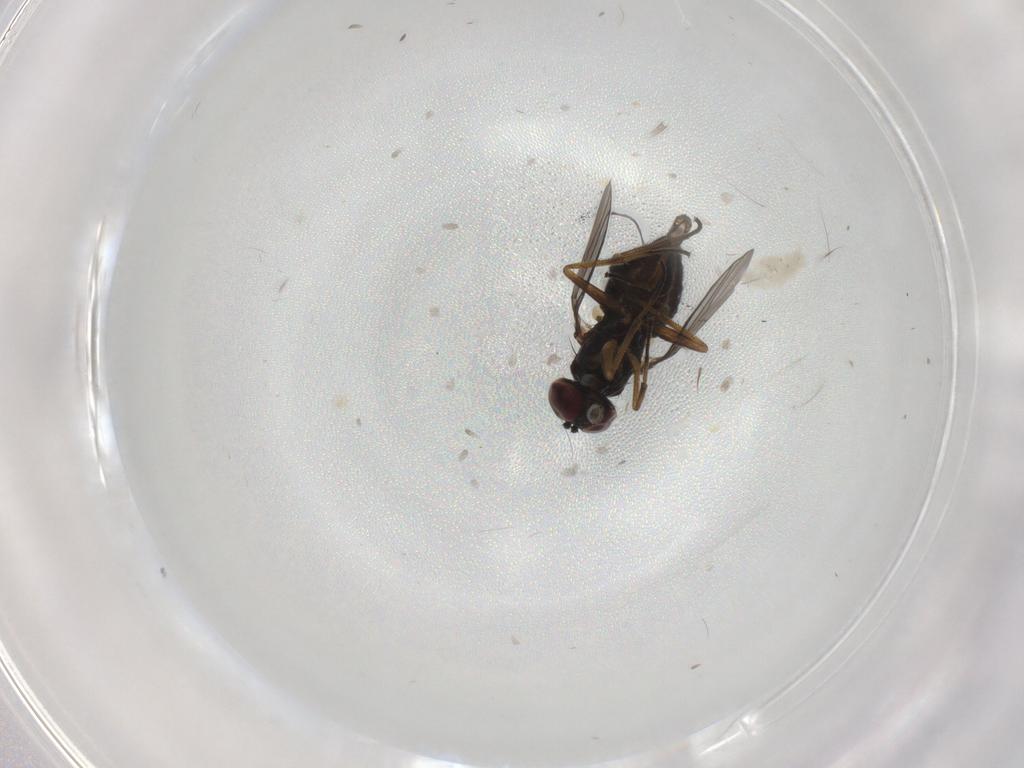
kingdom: Animalia
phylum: Arthropoda
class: Insecta
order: Diptera
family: Dolichopodidae
